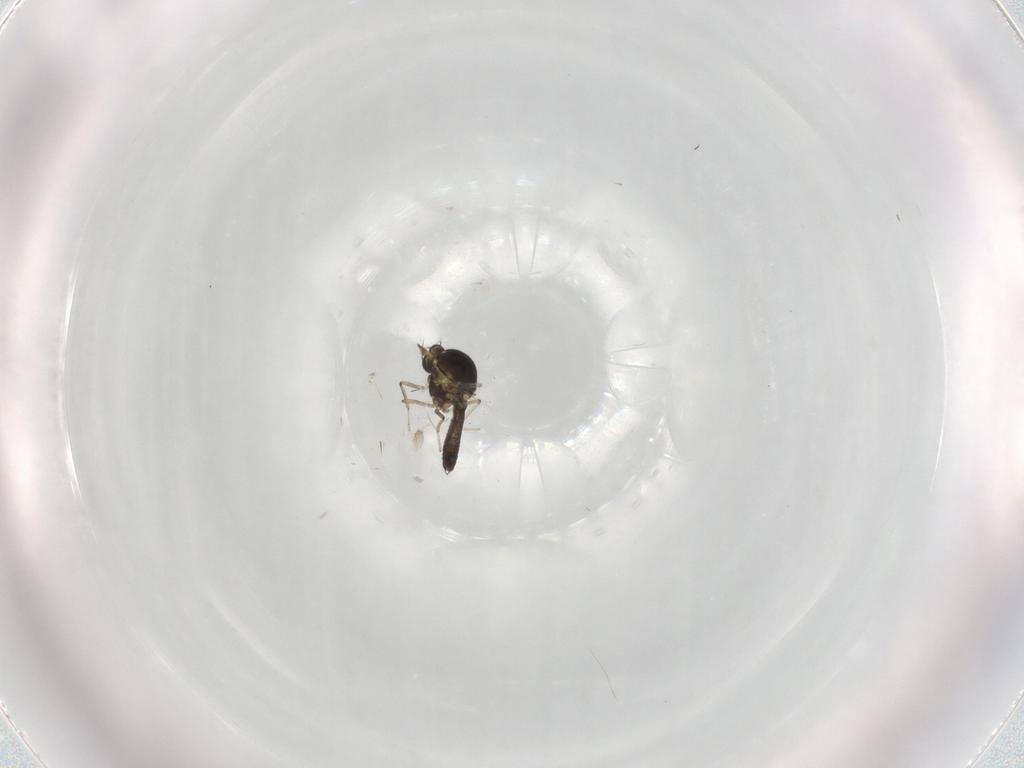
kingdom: Animalia
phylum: Arthropoda
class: Insecta
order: Diptera
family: Ceratopogonidae
